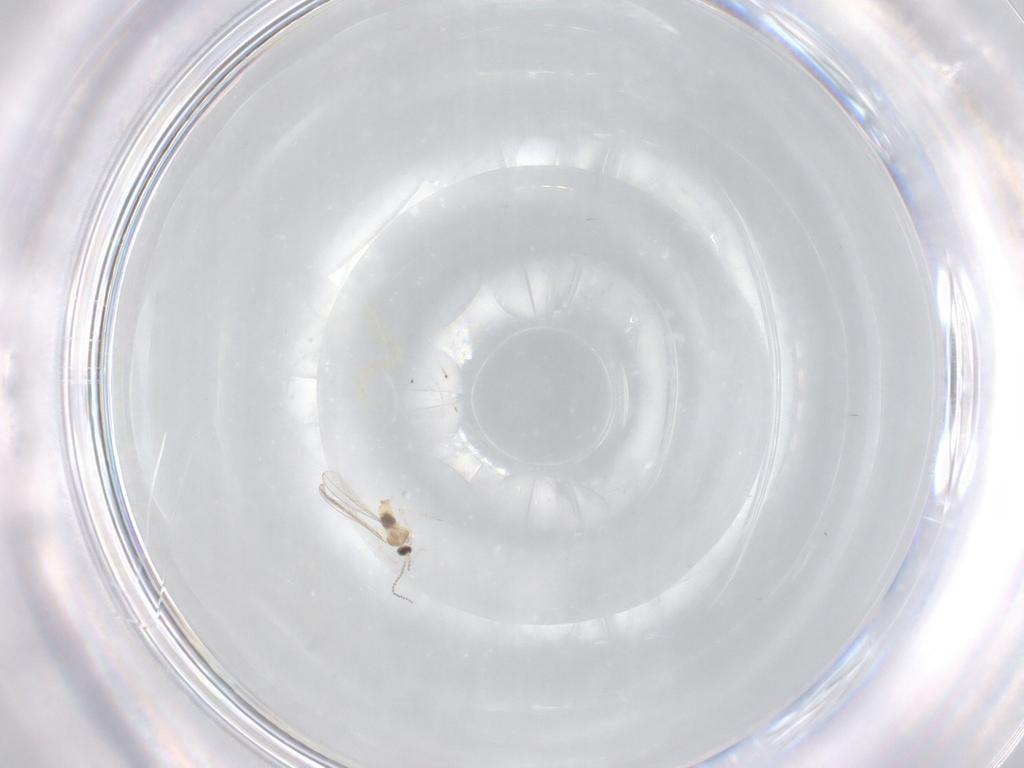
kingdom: Animalia
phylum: Arthropoda
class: Insecta
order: Diptera
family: Cecidomyiidae
